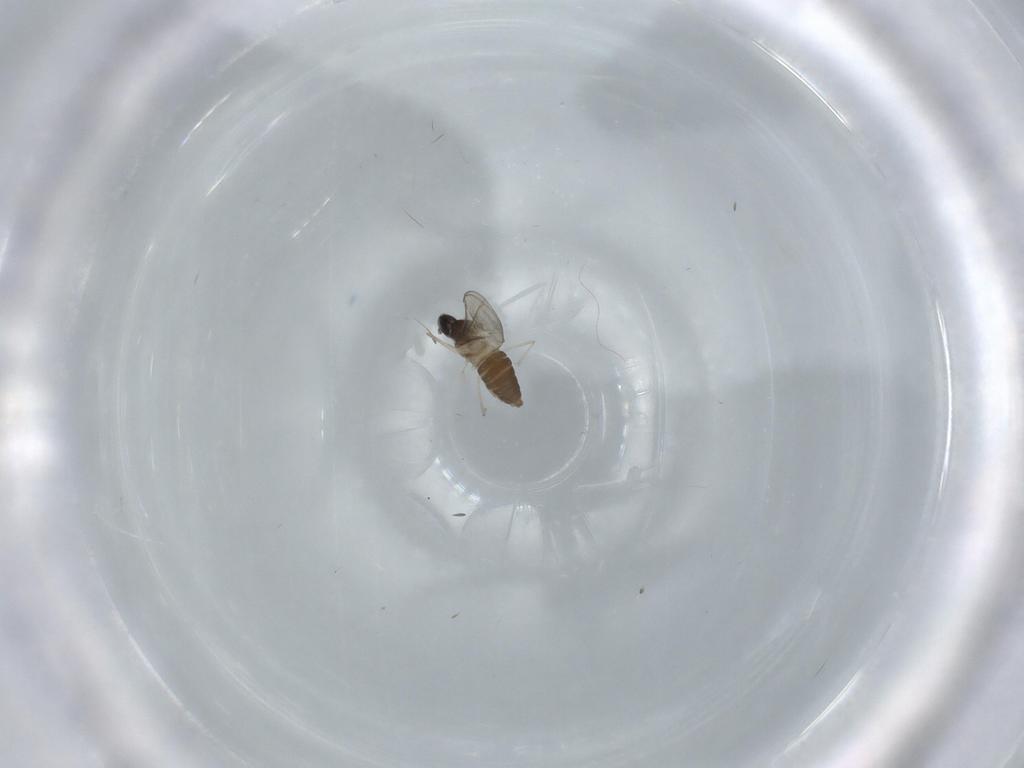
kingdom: Animalia
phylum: Arthropoda
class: Insecta
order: Diptera
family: Cecidomyiidae
